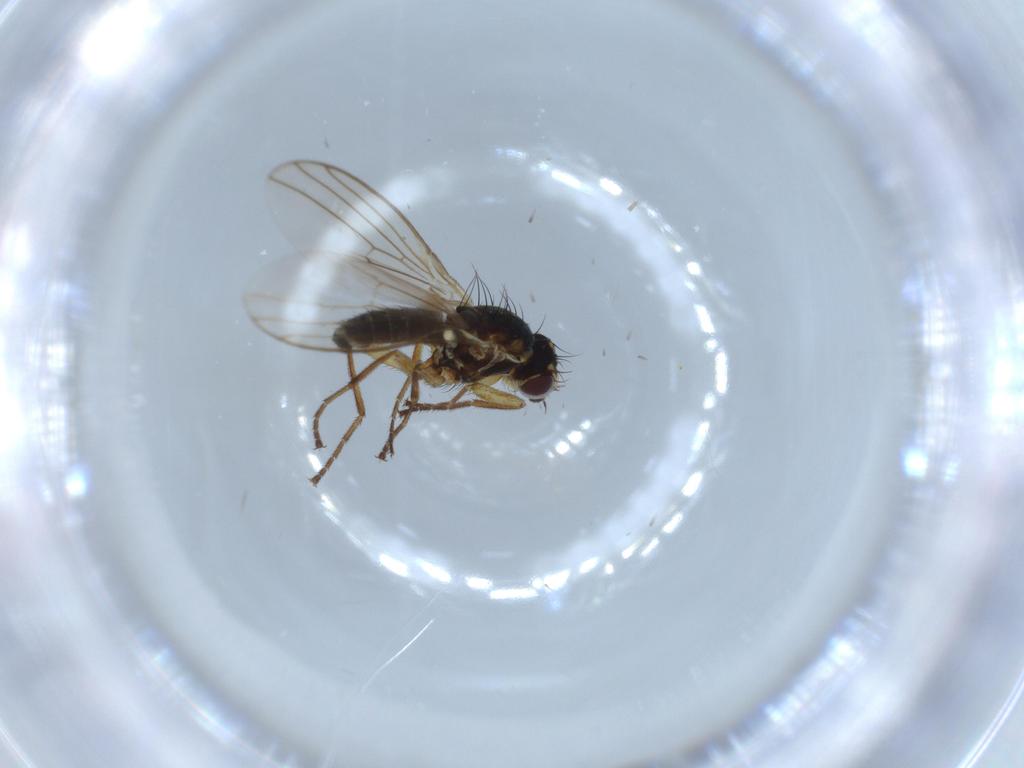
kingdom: Animalia
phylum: Arthropoda
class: Insecta
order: Diptera
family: Agromyzidae
